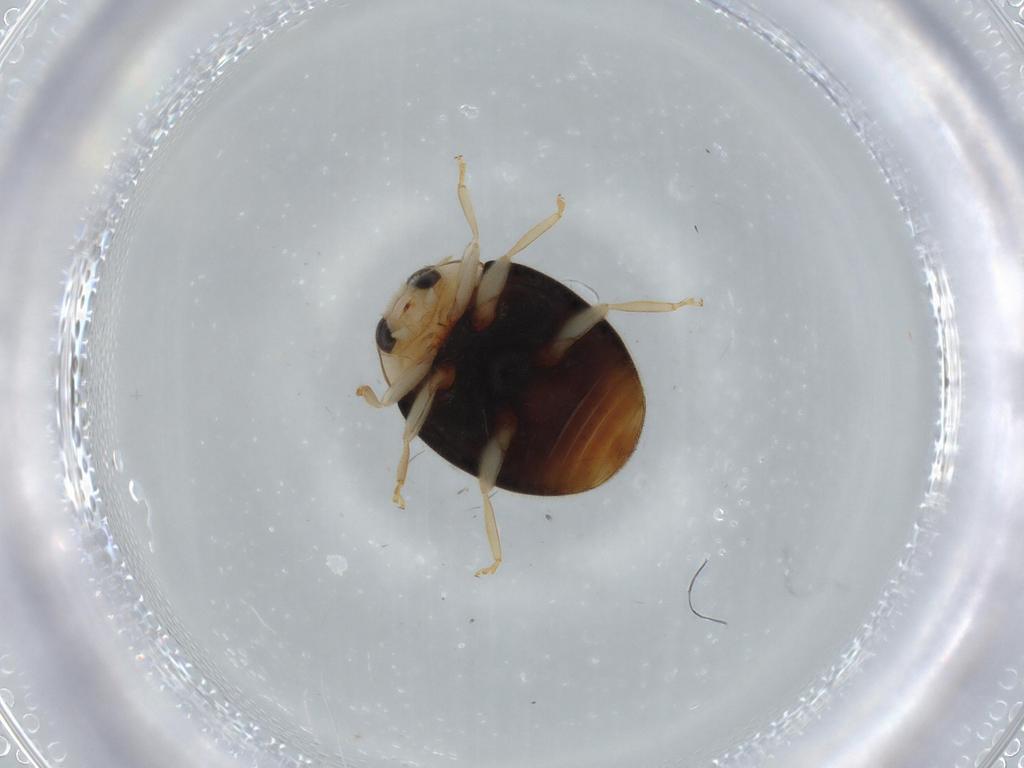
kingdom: Animalia
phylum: Arthropoda
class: Insecta
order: Coleoptera
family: Coccinellidae
